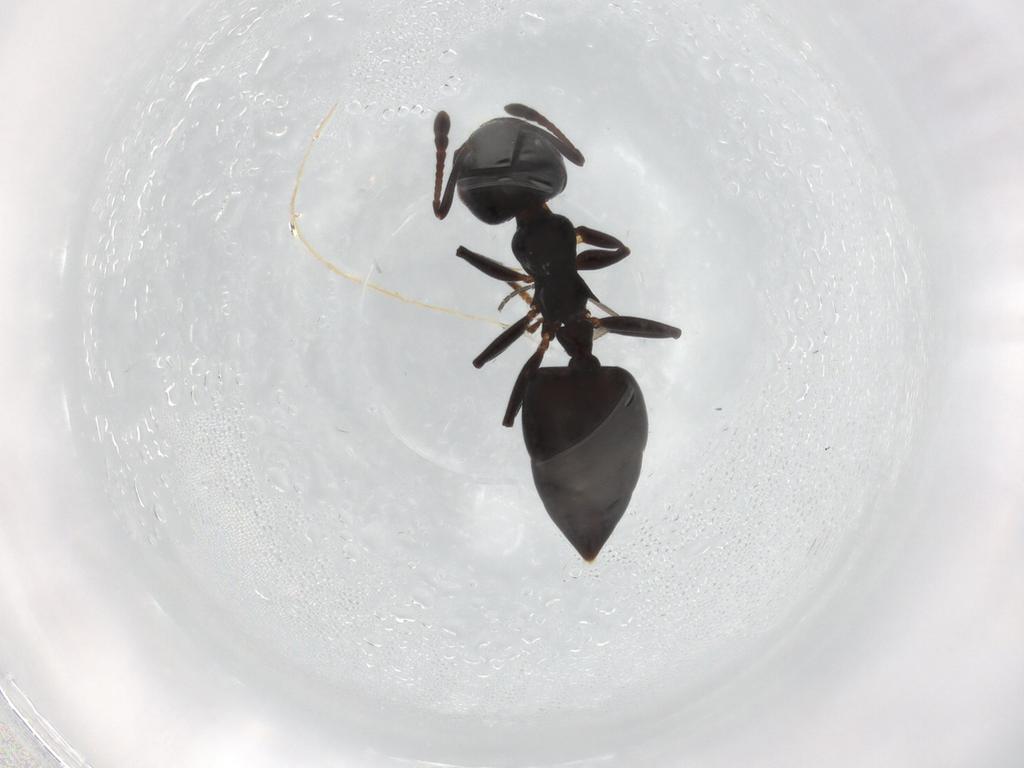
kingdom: Animalia
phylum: Arthropoda
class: Insecta
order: Hymenoptera
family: Formicidae
